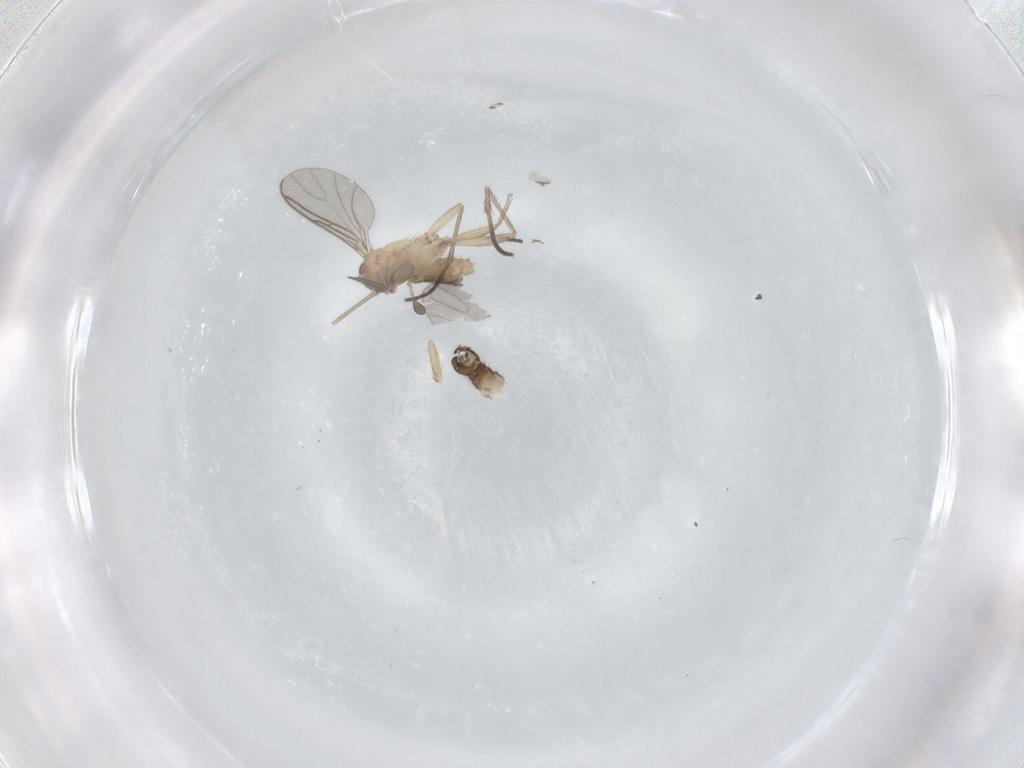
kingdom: Animalia
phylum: Arthropoda
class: Insecta
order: Diptera
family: Sciaridae
